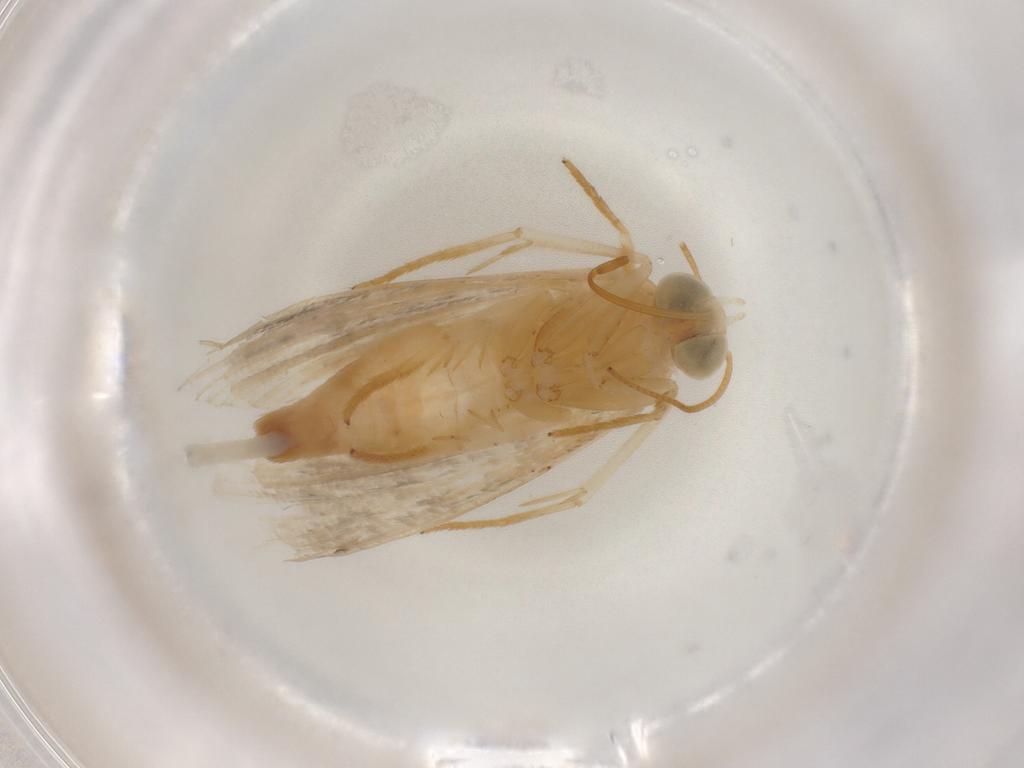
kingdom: Animalia
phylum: Arthropoda
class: Insecta
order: Lepidoptera
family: Noctuidae
